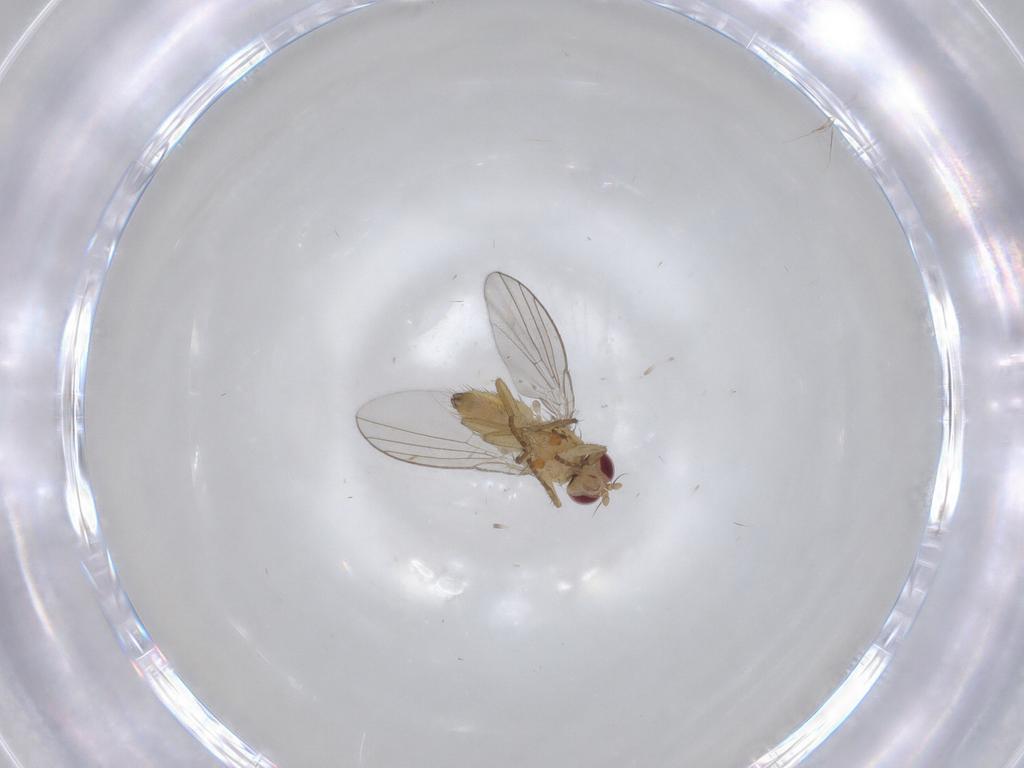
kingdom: Animalia
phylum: Arthropoda
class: Insecta
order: Diptera
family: Agromyzidae
